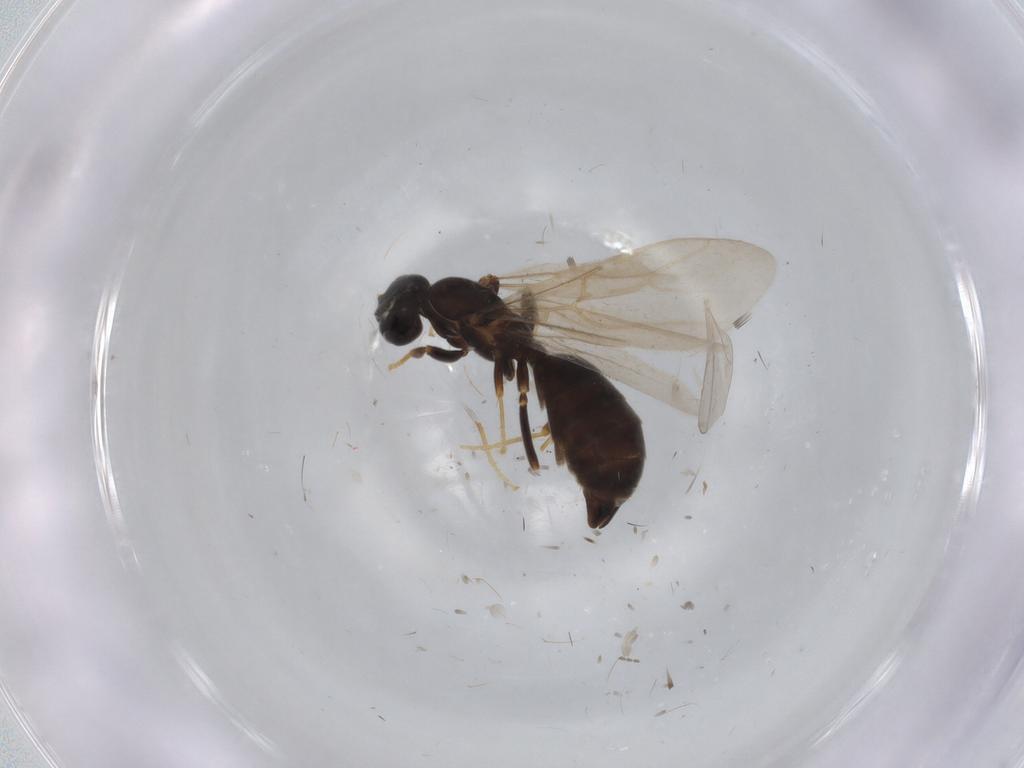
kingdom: Animalia
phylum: Arthropoda
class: Insecta
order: Hymenoptera
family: Formicidae
